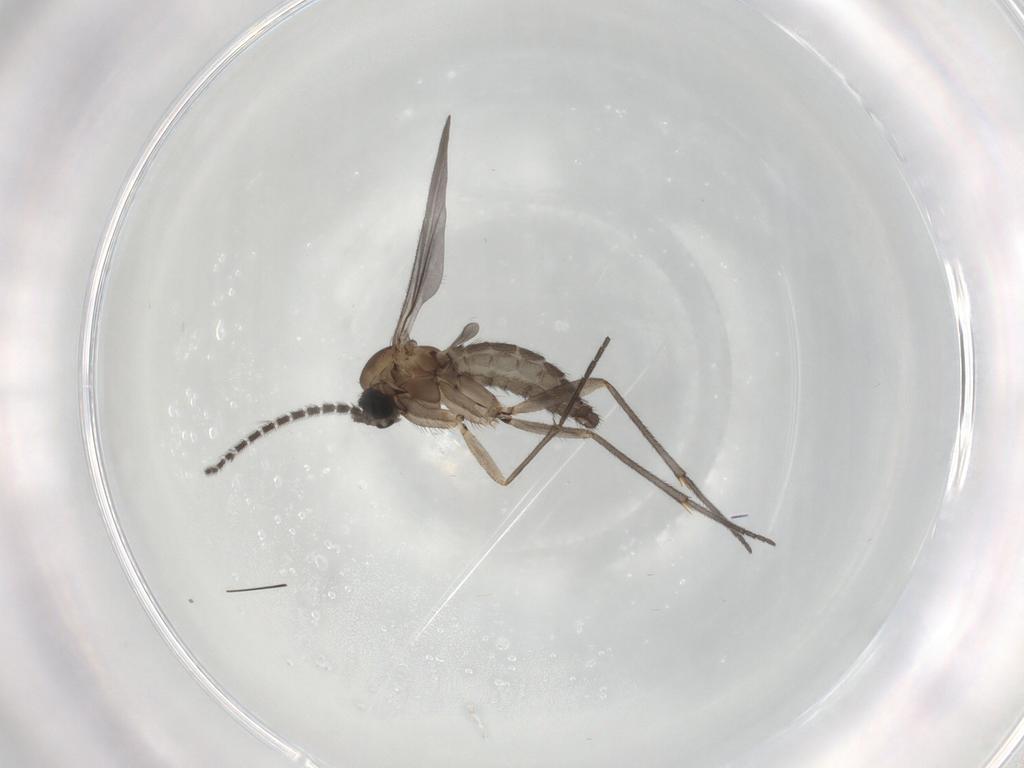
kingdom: Animalia
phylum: Arthropoda
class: Insecta
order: Diptera
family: Sciaridae
